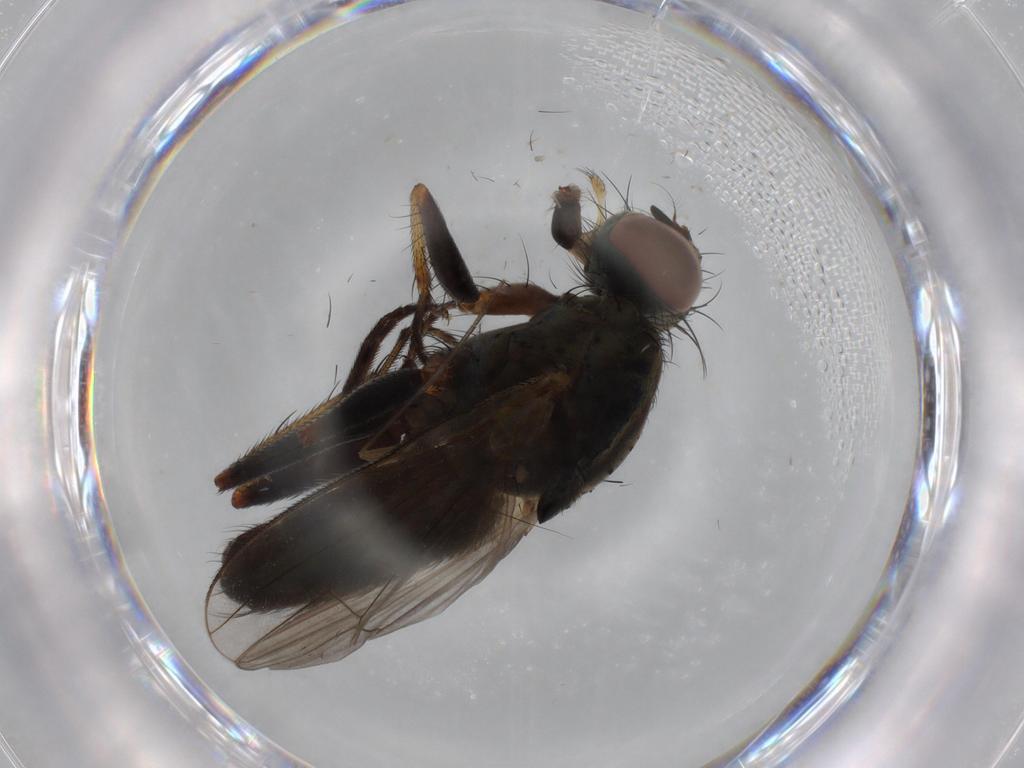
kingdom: Animalia
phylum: Arthropoda
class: Insecta
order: Diptera
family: Muscidae
